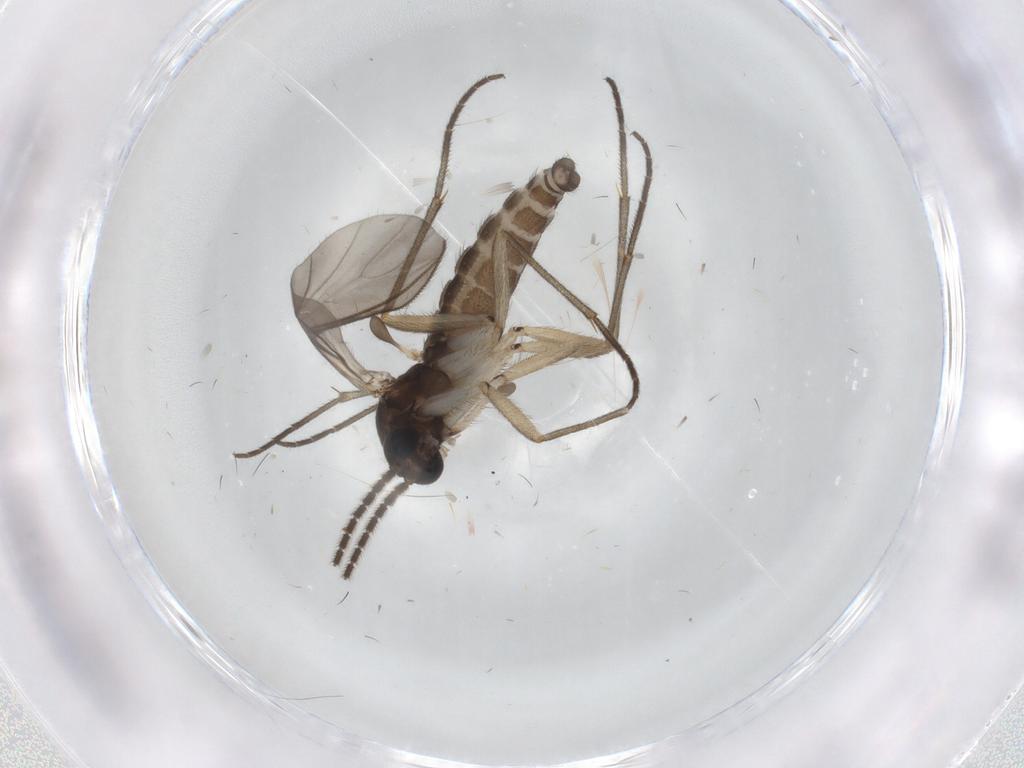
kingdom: Animalia
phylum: Arthropoda
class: Insecta
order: Diptera
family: Sciaridae
